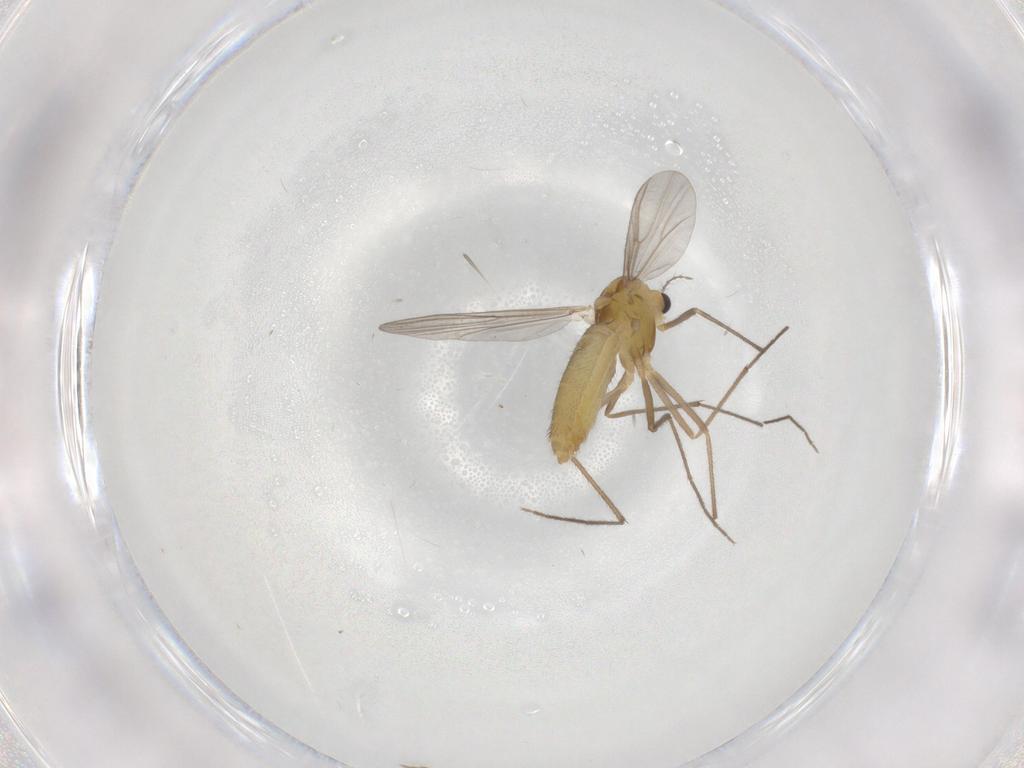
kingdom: Animalia
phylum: Arthropoda
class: Insecta
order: Diptera
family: Chironomidae
